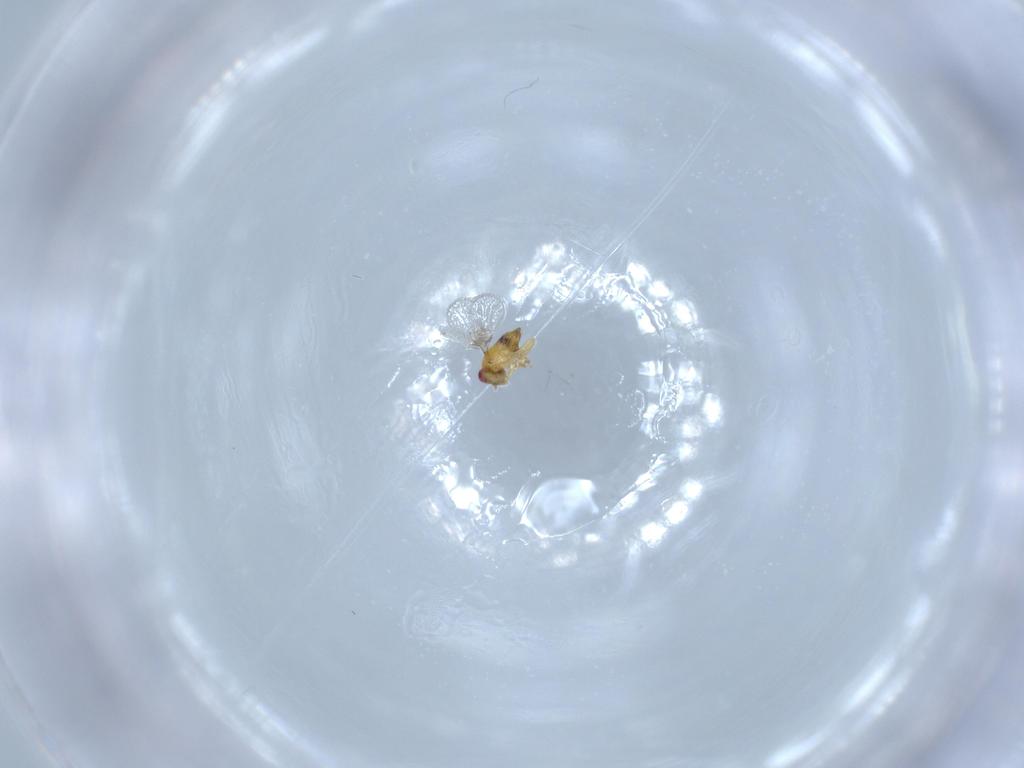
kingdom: Animalia
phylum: Arthropoda
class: Insecta
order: Hymenoptera
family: Trichogrammatidae
